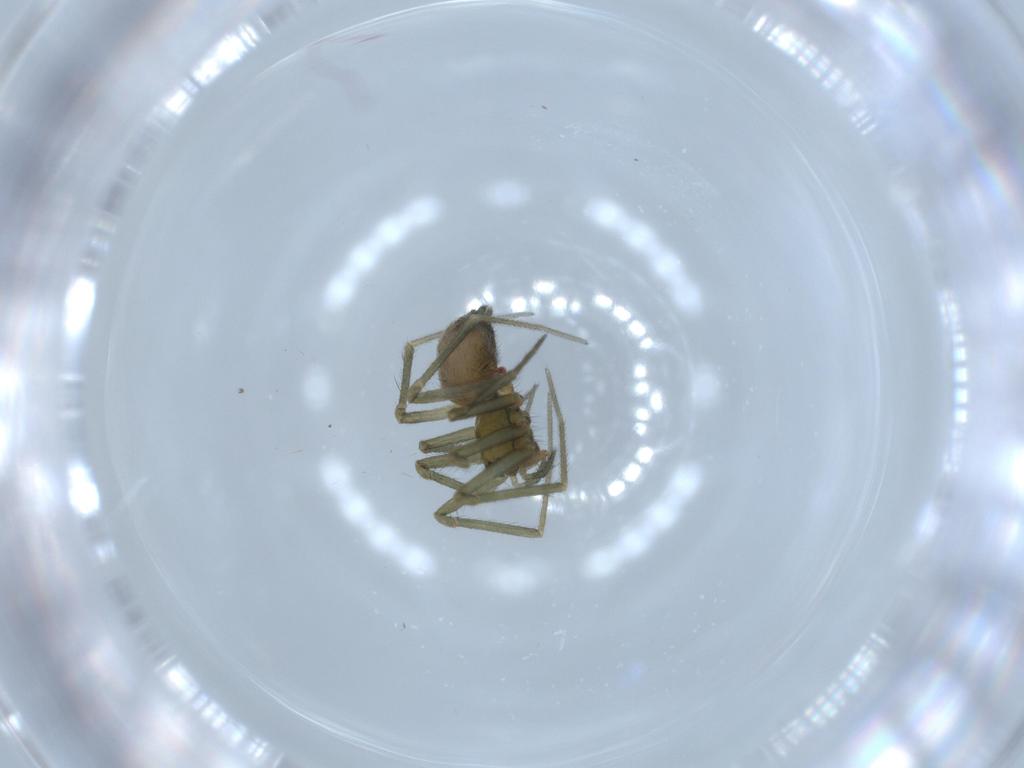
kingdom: Animalia
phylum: Arthropoda
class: Arachnida
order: Araneae
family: Linyphiidae
